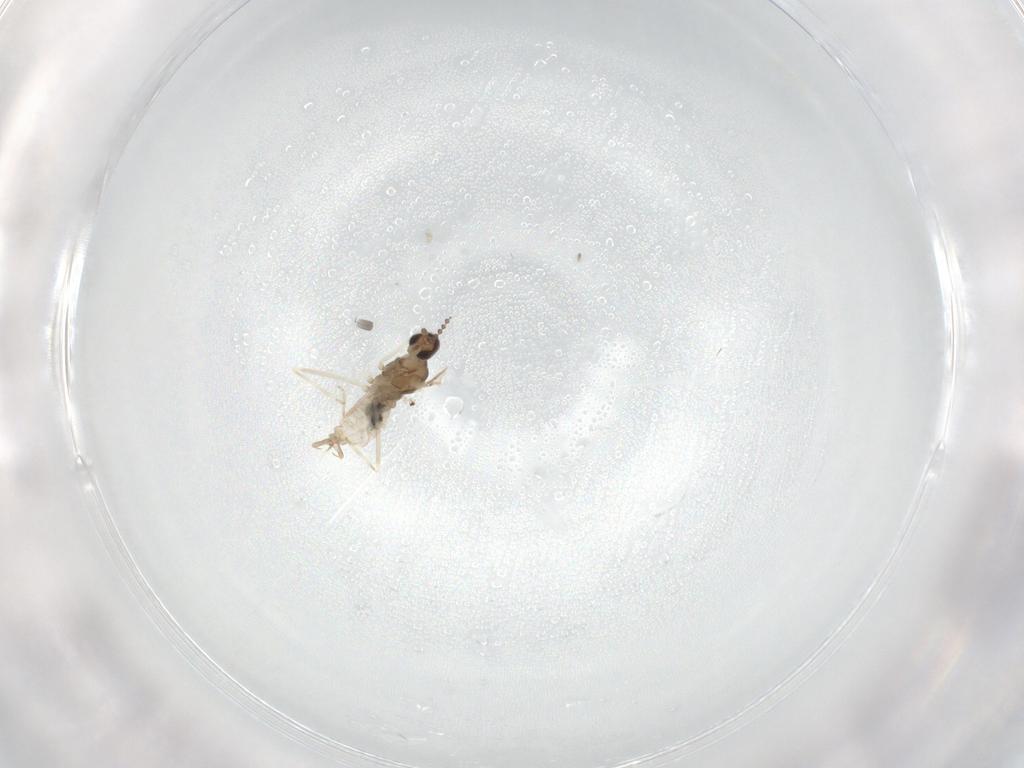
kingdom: Animalia
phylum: Arthropoda
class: Insecta
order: Diptera
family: Cecidomyiidae
